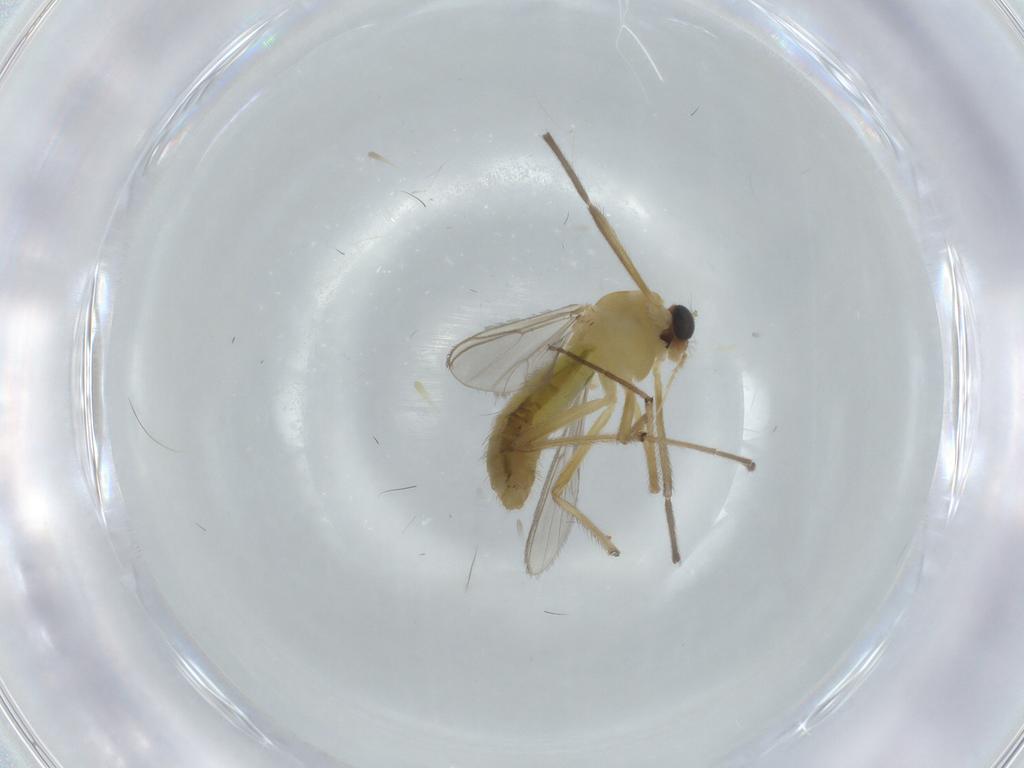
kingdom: Animalia
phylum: Arthropoda
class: Insecta
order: Diptera
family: Chironomidae
